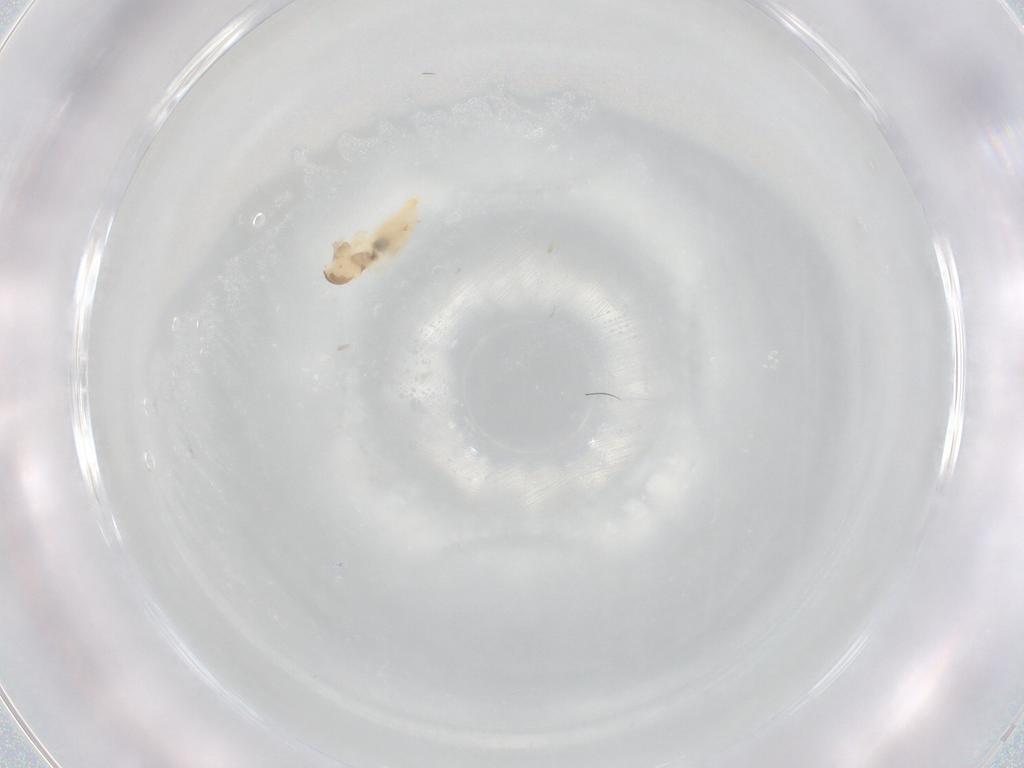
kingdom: Animalia
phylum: Arthropoda
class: Insecta
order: Diptera
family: Cecidomyiidae
